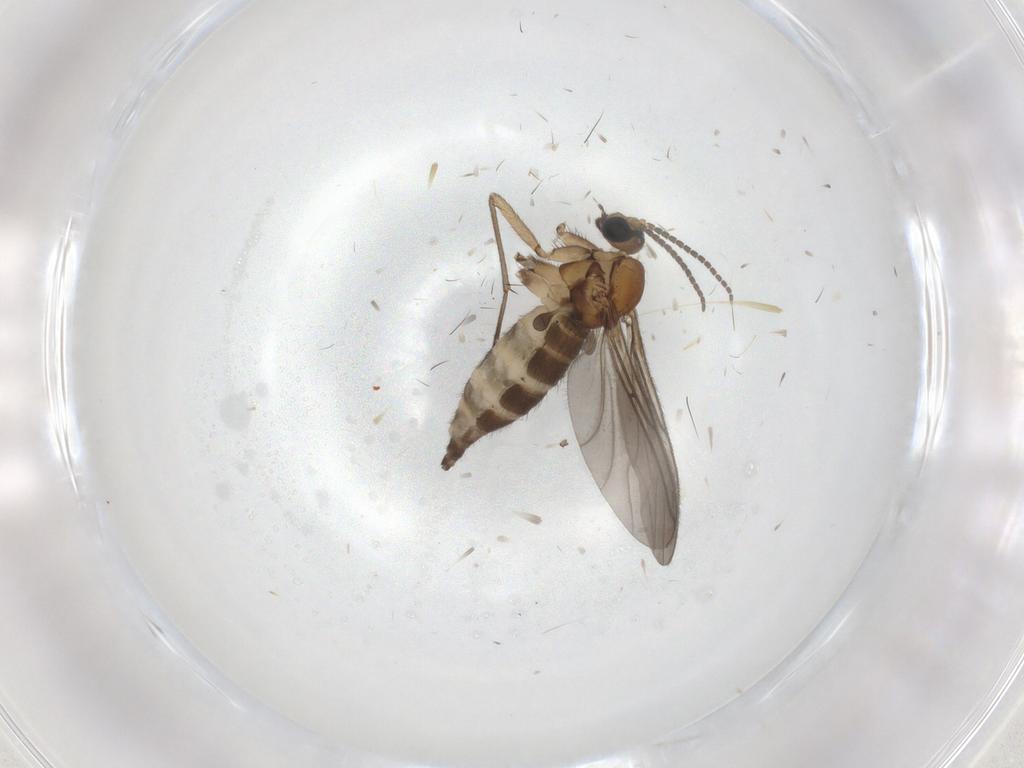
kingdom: Animalia
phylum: Arthropoda
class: Insecta
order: Diptera
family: Sciaridae
